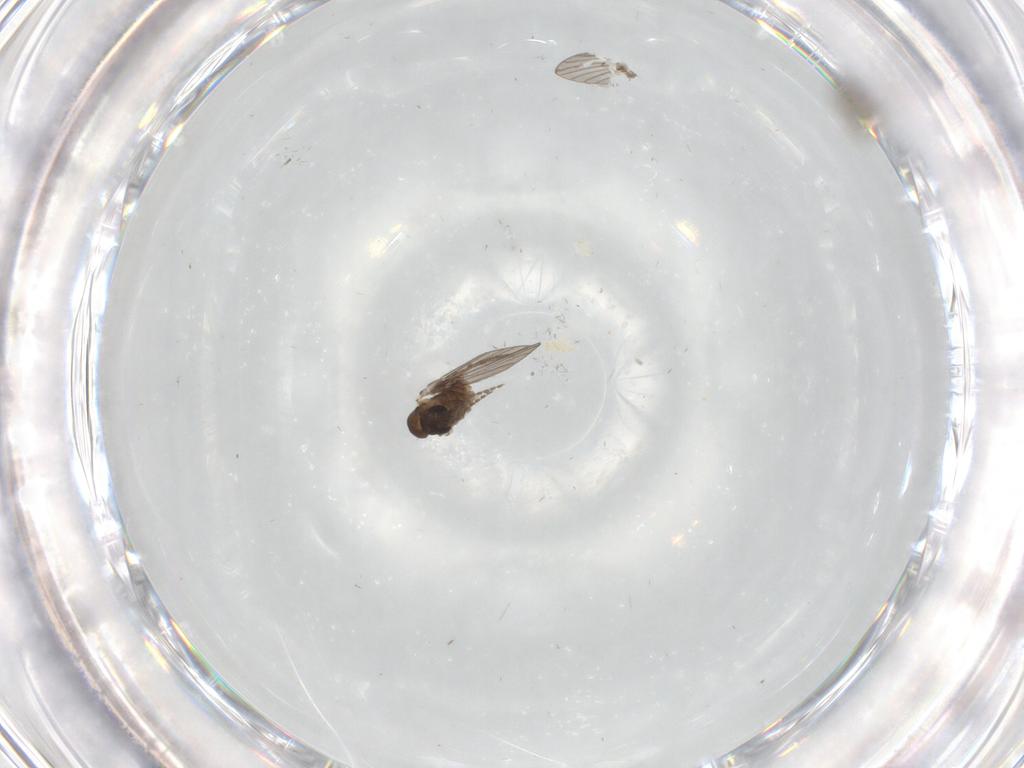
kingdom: Animalia
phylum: Arthropoda
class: Insecta
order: Diptera
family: Chironomidae
